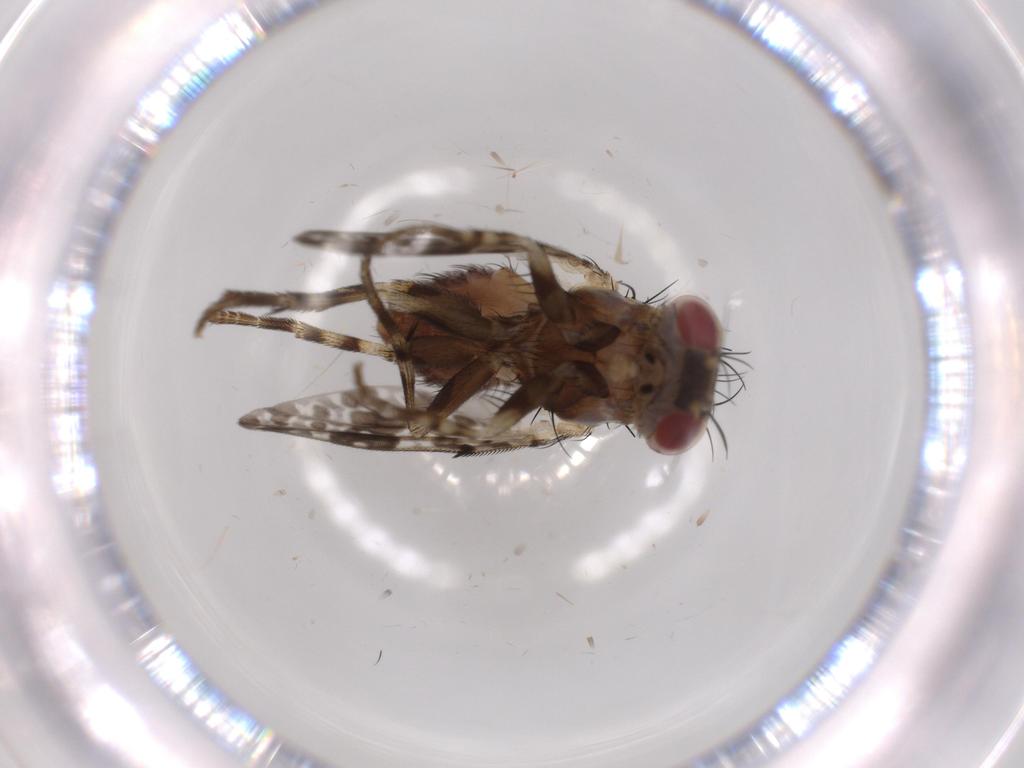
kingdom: Animalia
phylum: Arthropoda
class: Insecta
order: Diptera
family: Odiniidae
